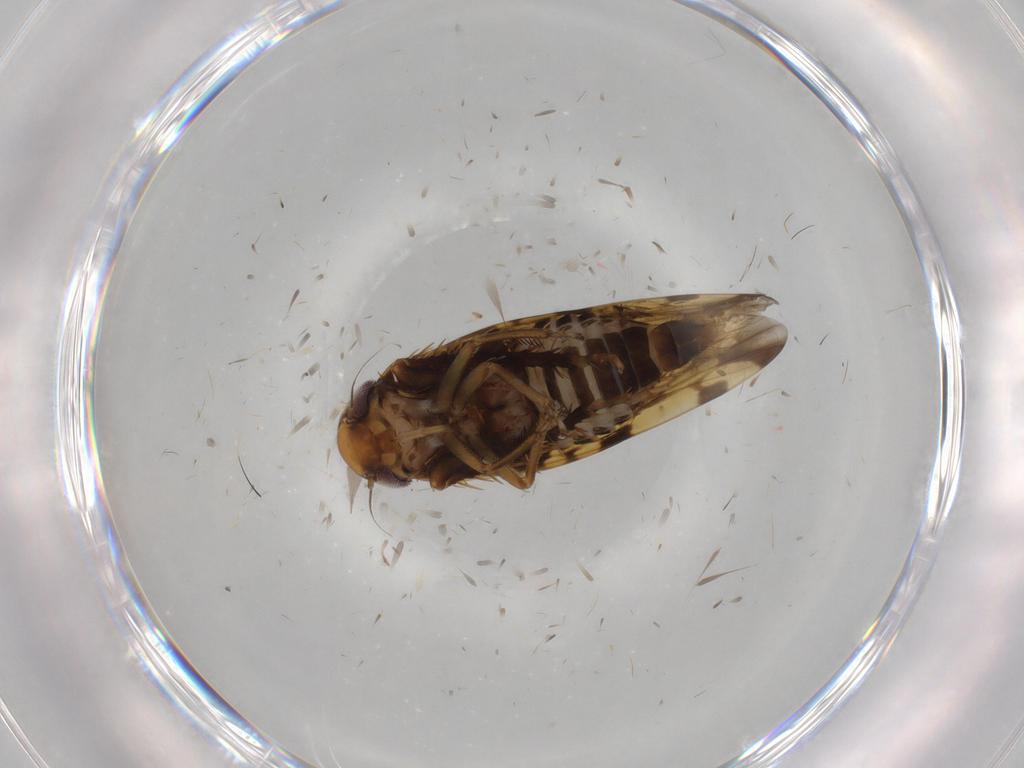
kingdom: Animalia
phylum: Arthropoda
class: Insecta
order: Hemiptera
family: Cicadellidae
